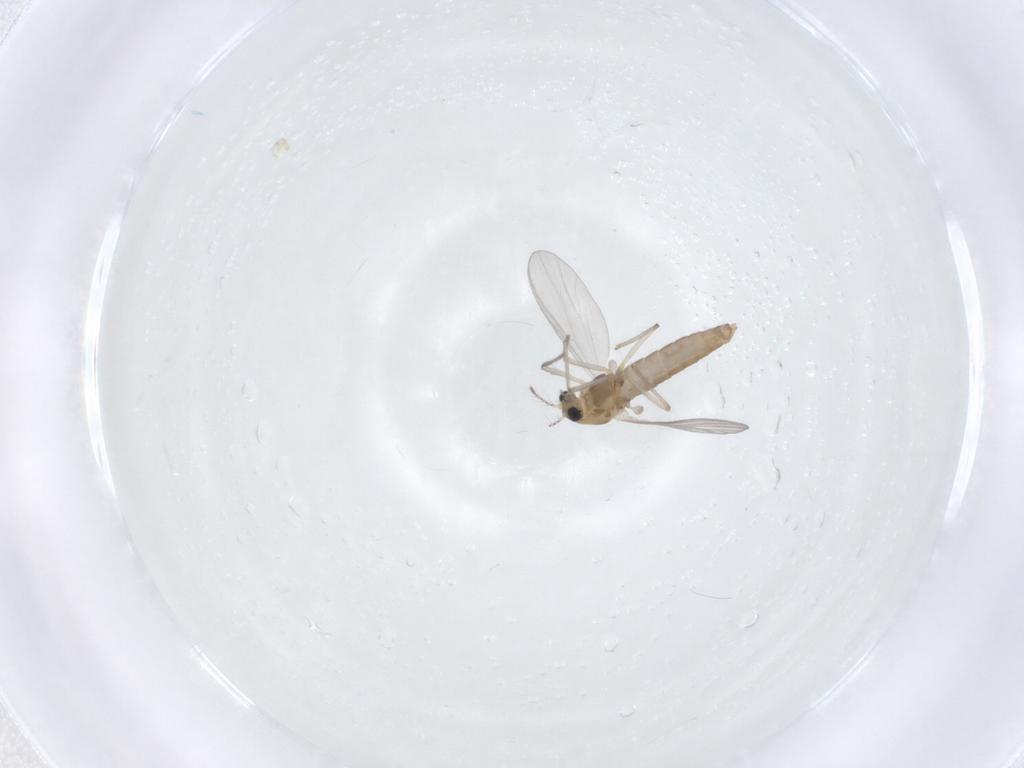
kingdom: Animalia
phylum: Arthropoda
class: Insecta
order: Diptera
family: Chironomidae
